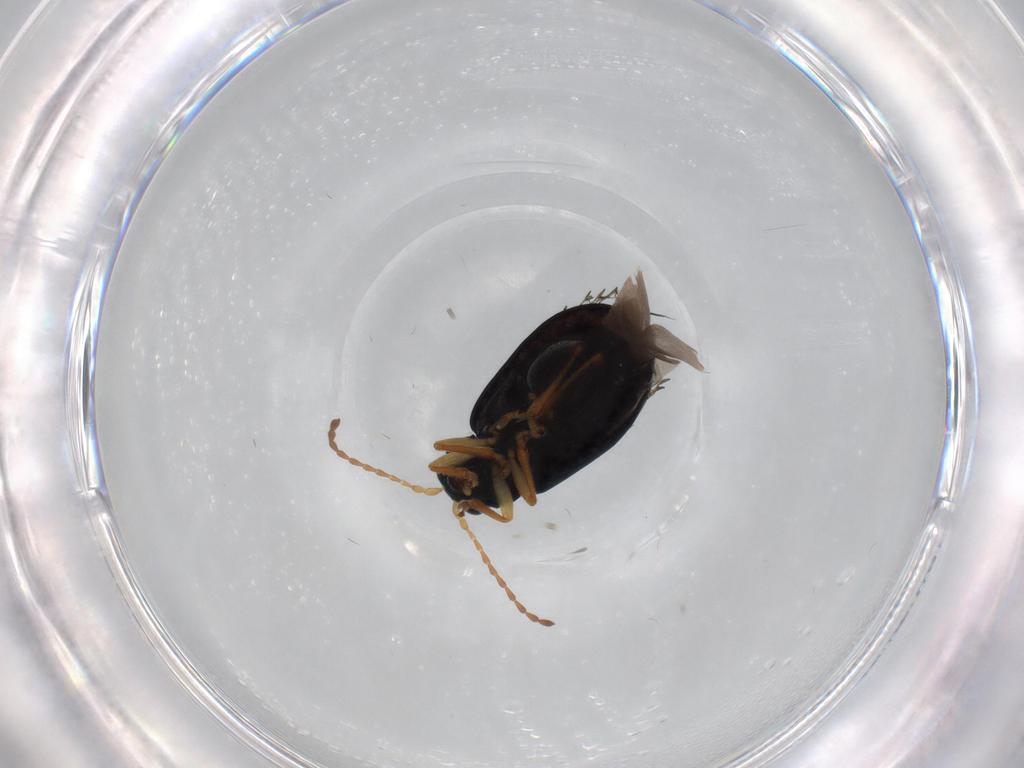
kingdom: Animalia
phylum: Arthropoda
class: Insecta
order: Coleoptera
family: Chrysomelidae
